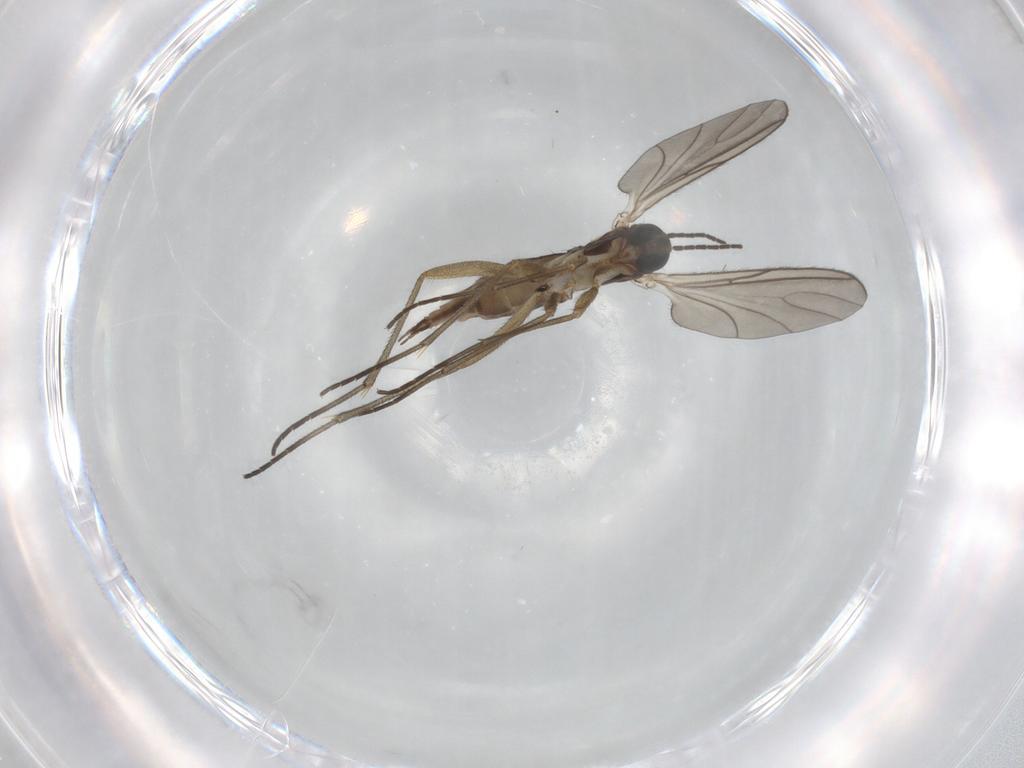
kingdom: Animalia
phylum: Arthropoda
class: Insecta
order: Diptera
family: Sciaridae
